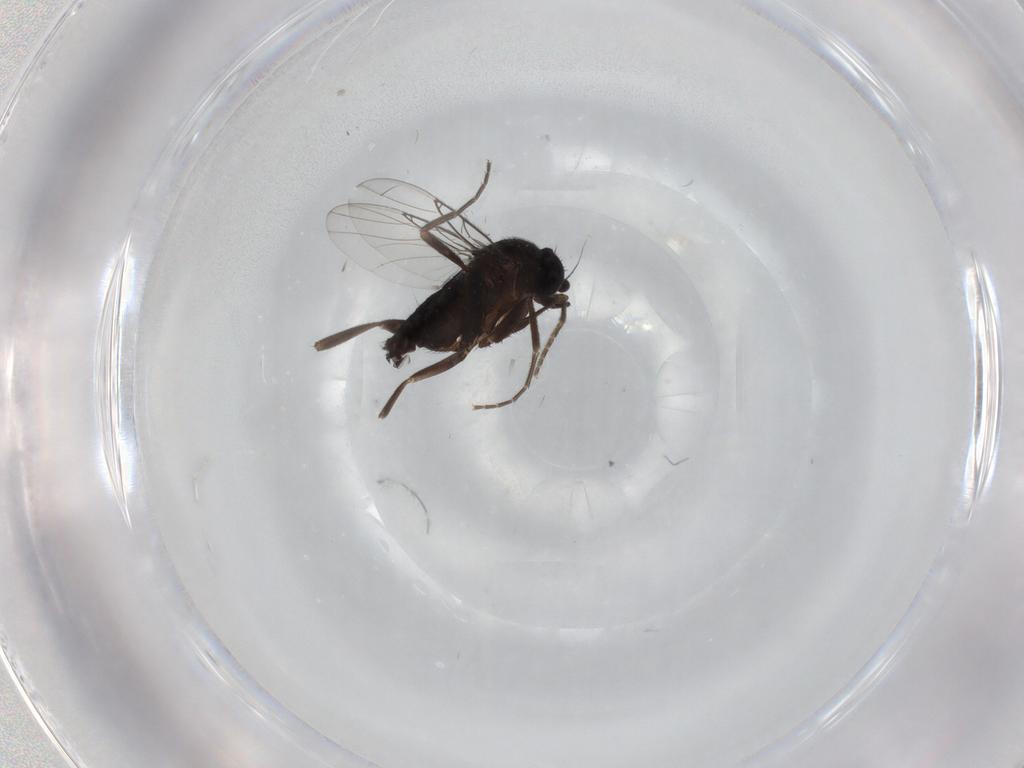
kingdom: Animalia
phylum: Arthropoda
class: Insecta
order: Diptera
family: Phoridae
